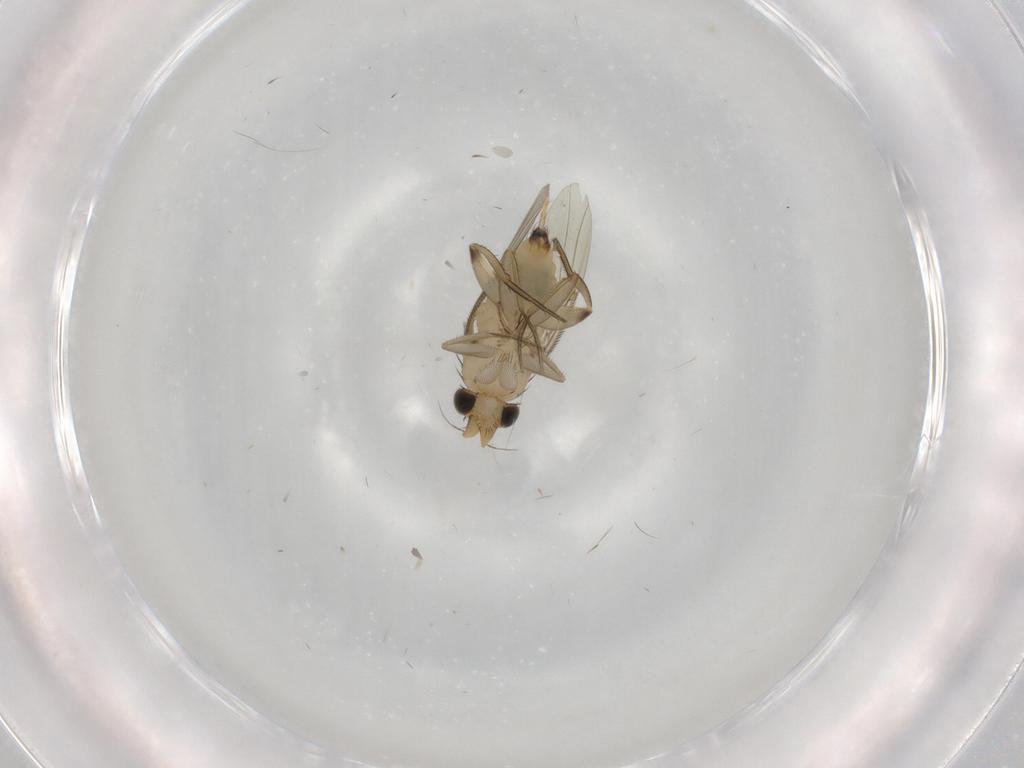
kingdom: Animalia
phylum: Arthropoda
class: Insecta
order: Diptera
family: Phoridae
